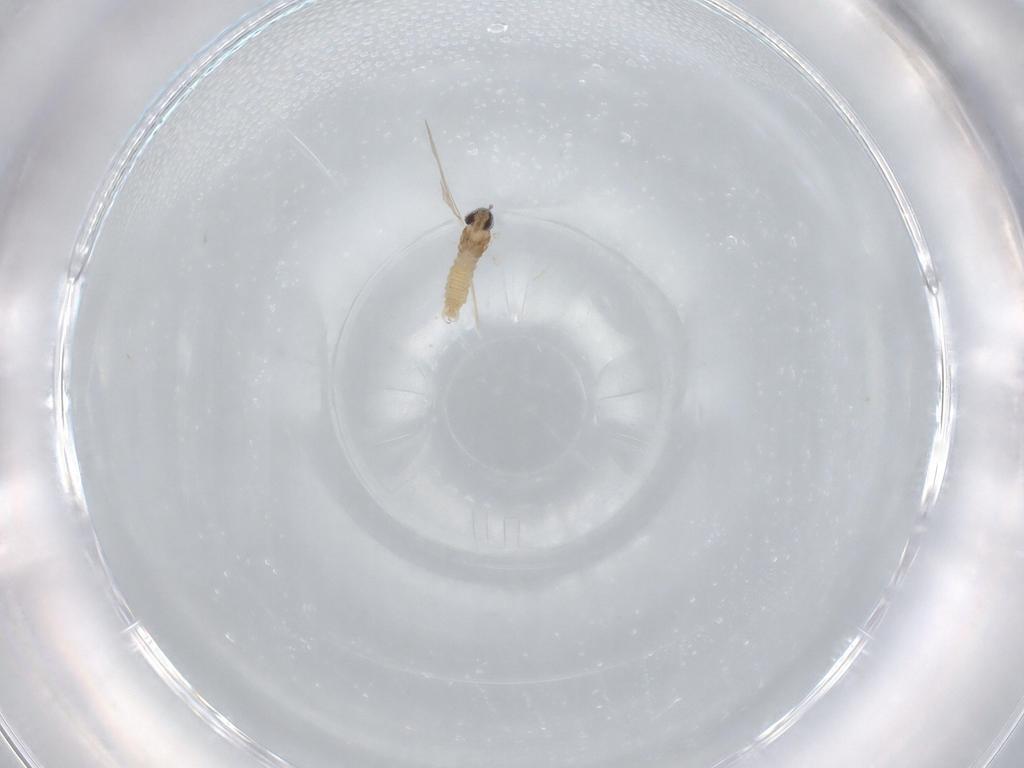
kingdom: Animalia
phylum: Arthropoda
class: Insecta
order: Diptera
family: Cecidomyiidae
